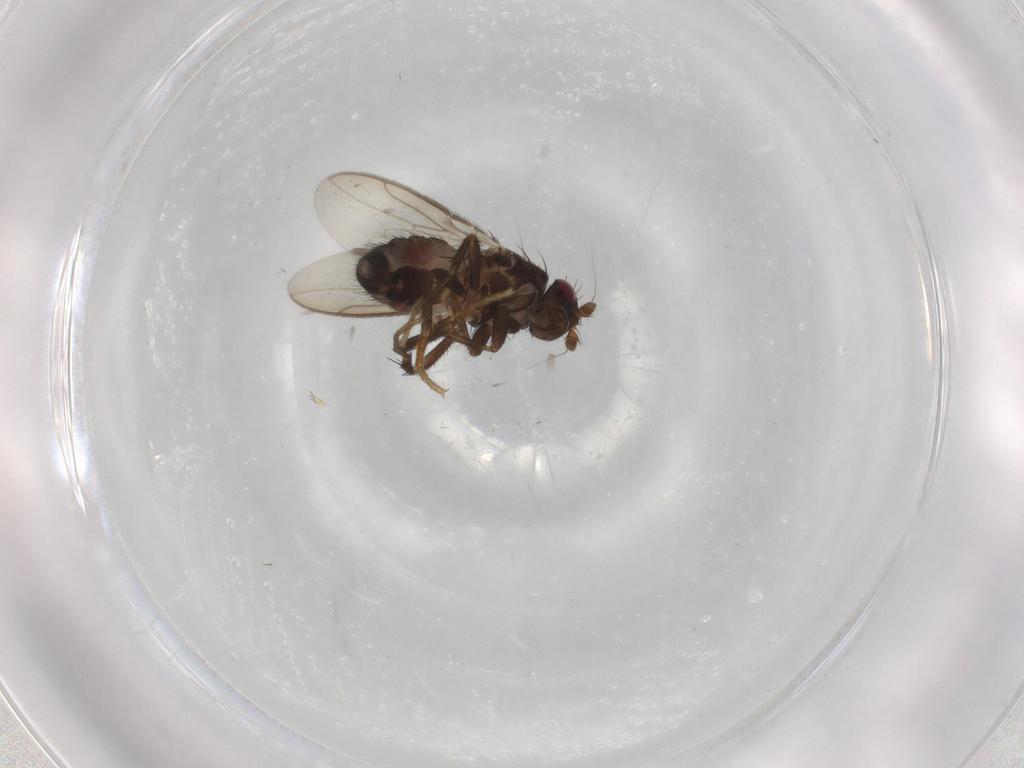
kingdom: Animalia
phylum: Arthropoda
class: Insecta
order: Diptera
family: Sphaeroceridae
